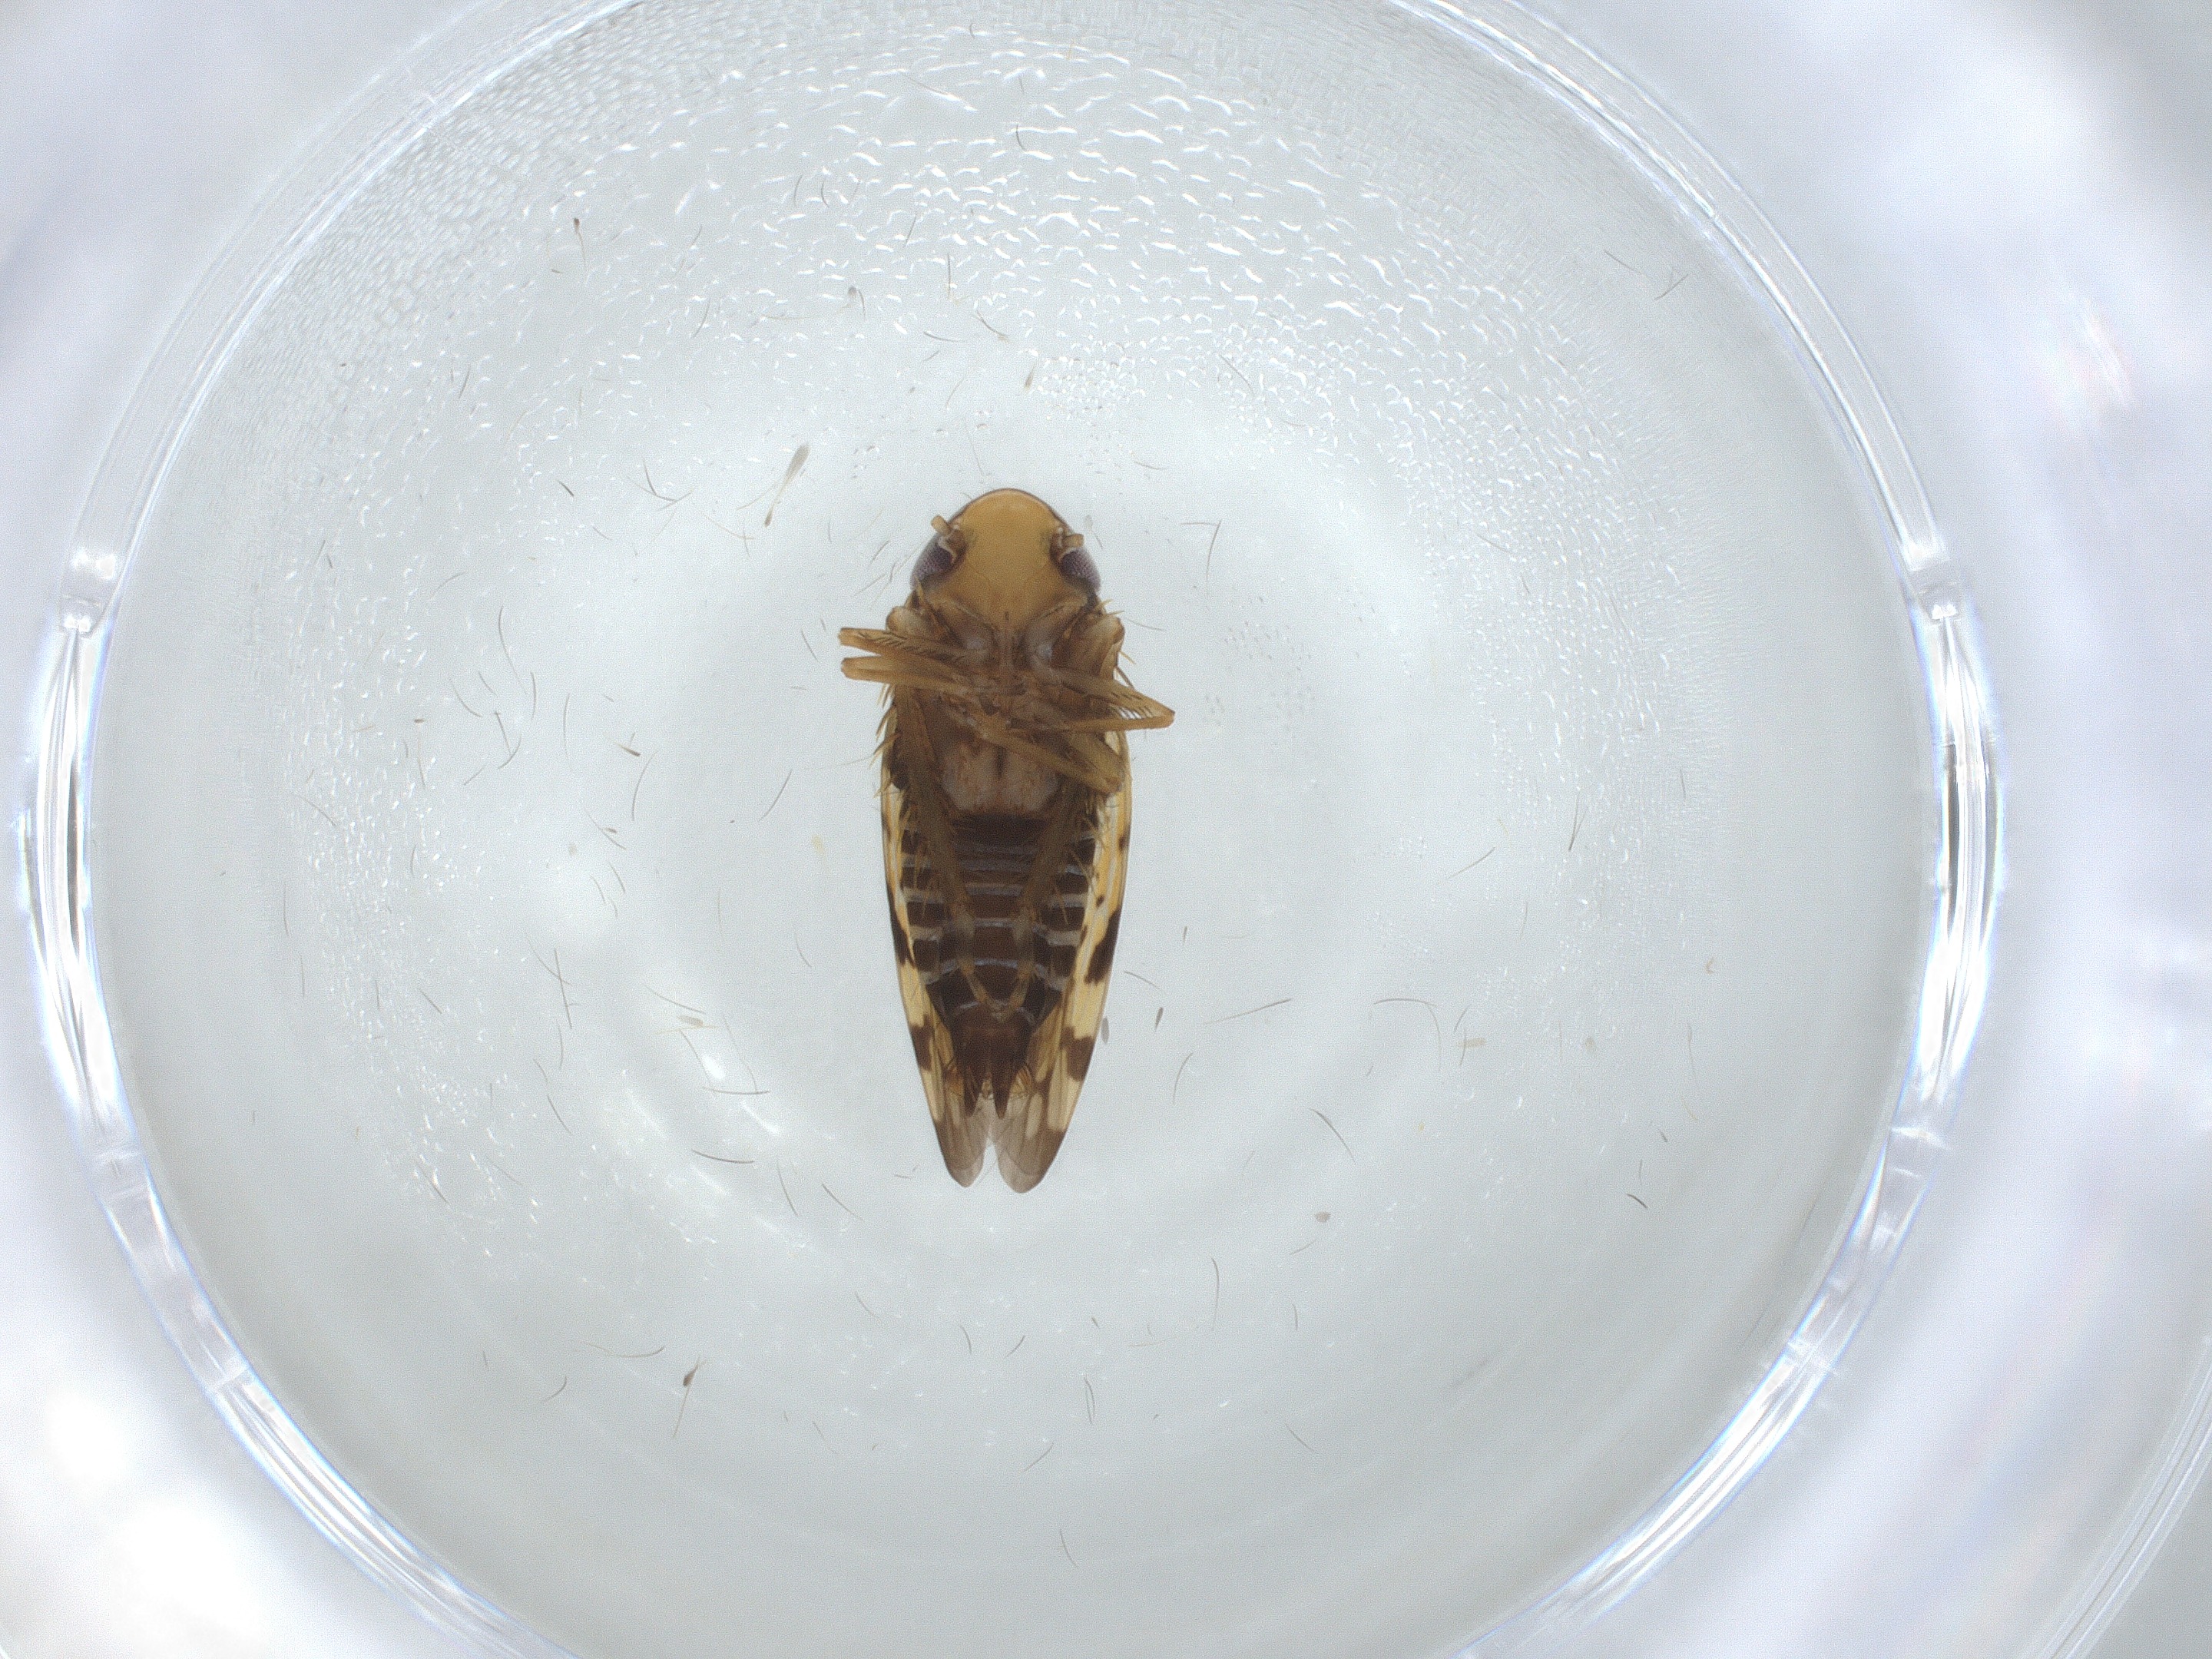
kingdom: Animalia
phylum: Arthropoda
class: Insecta
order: Hemiptera
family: Cicadellidae
